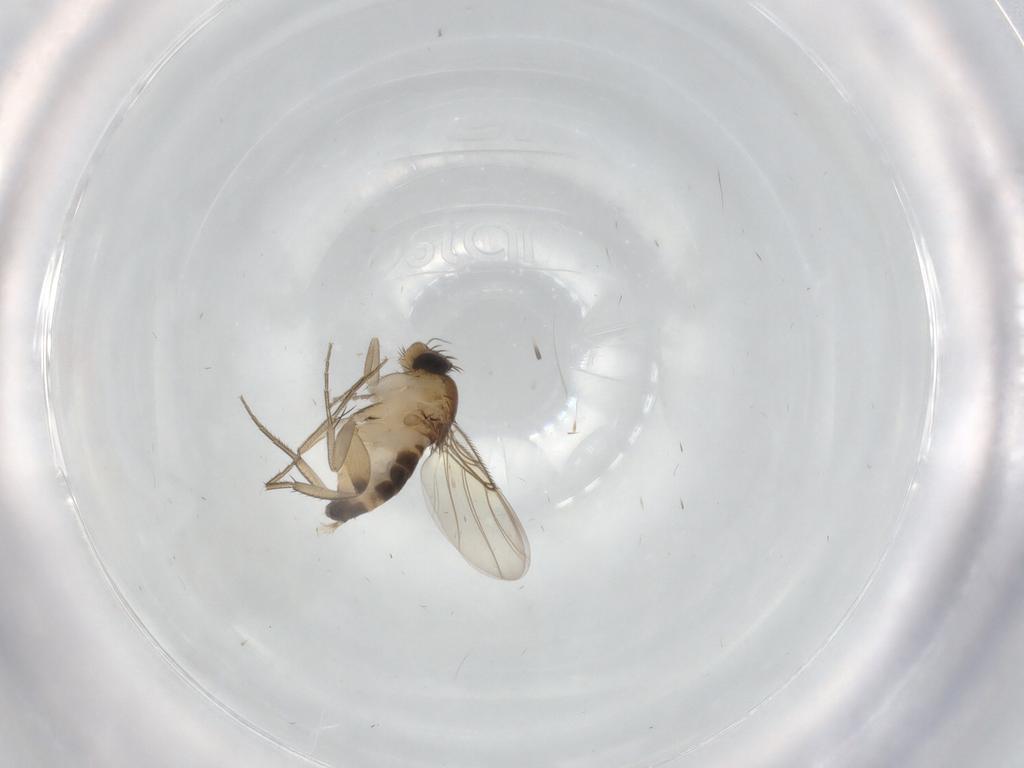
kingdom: Animalia
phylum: Arthropoda
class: Insecta
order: Diptera
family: Phoridae
